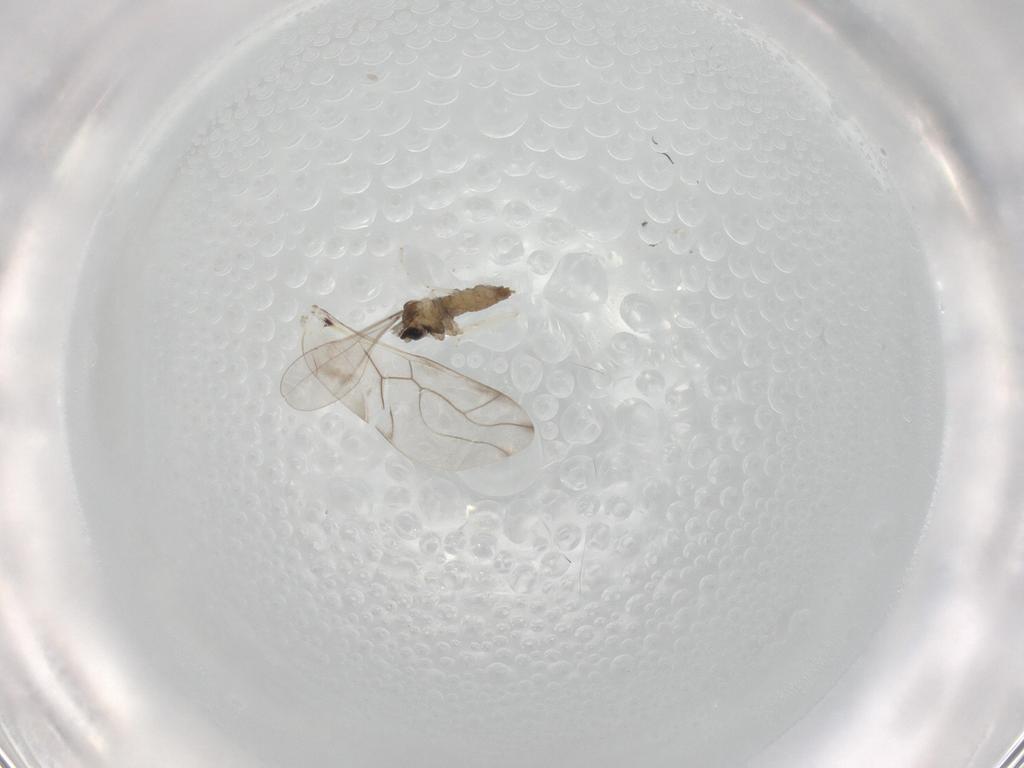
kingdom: Animalia
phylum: Arthropoda
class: Insecta
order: Diptera
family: Cecidomyiidae
